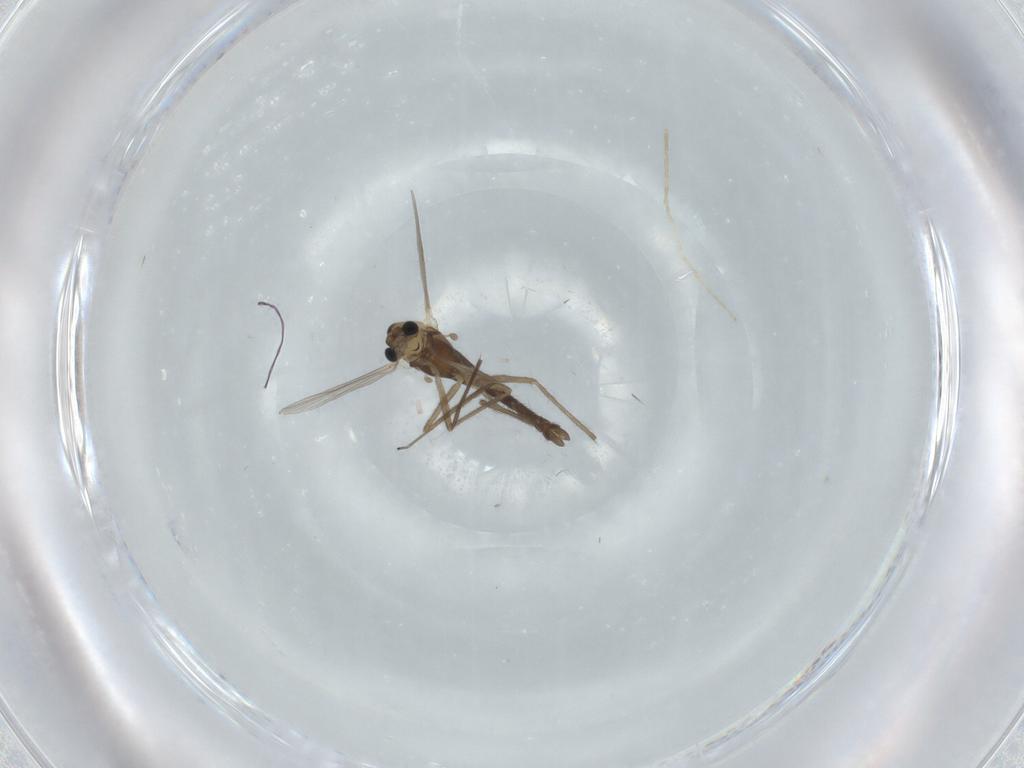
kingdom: Animalia
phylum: Arthropoda
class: Insecta
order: Diptera
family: Chironomidae
